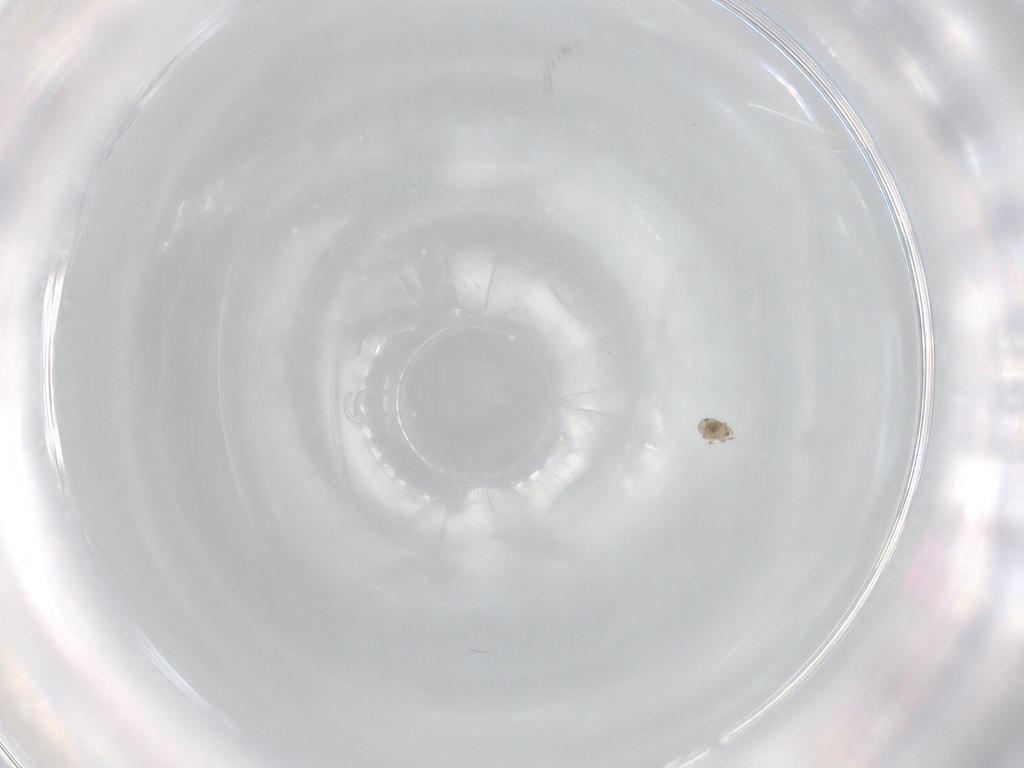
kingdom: Animalia
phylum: Arthropoda
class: Arachnida
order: Sarcoptiformes
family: Humerobatidae
